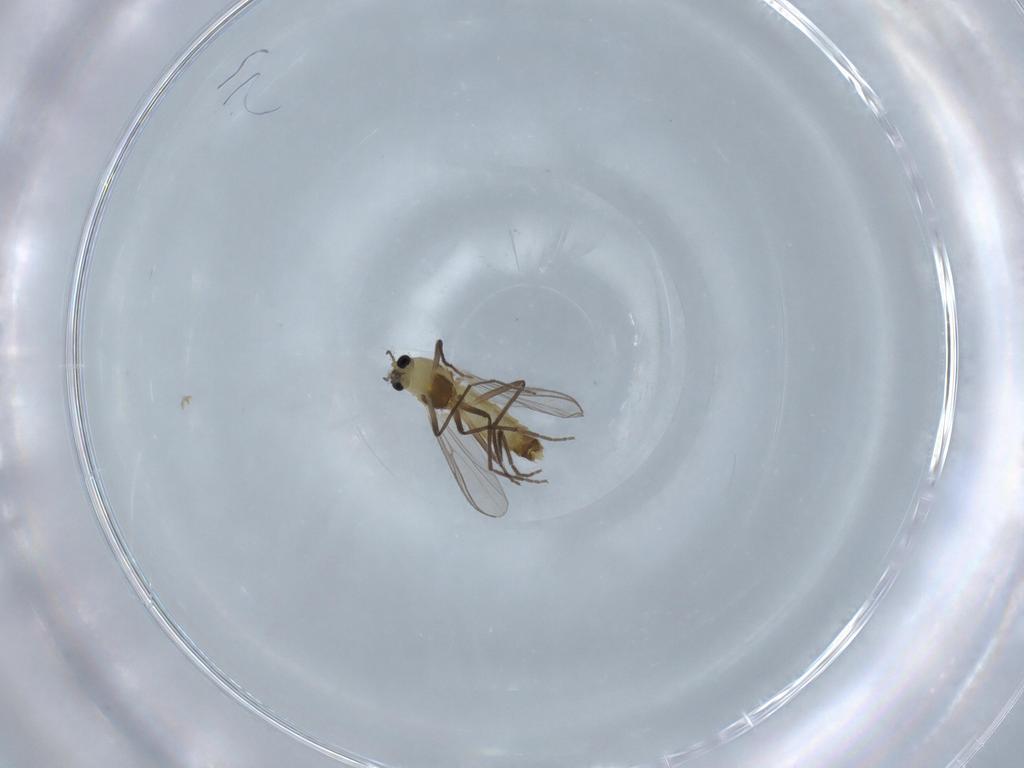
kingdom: Animalia
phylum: Arthropoda
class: Insecta
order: Diptera
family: Chironomidae
